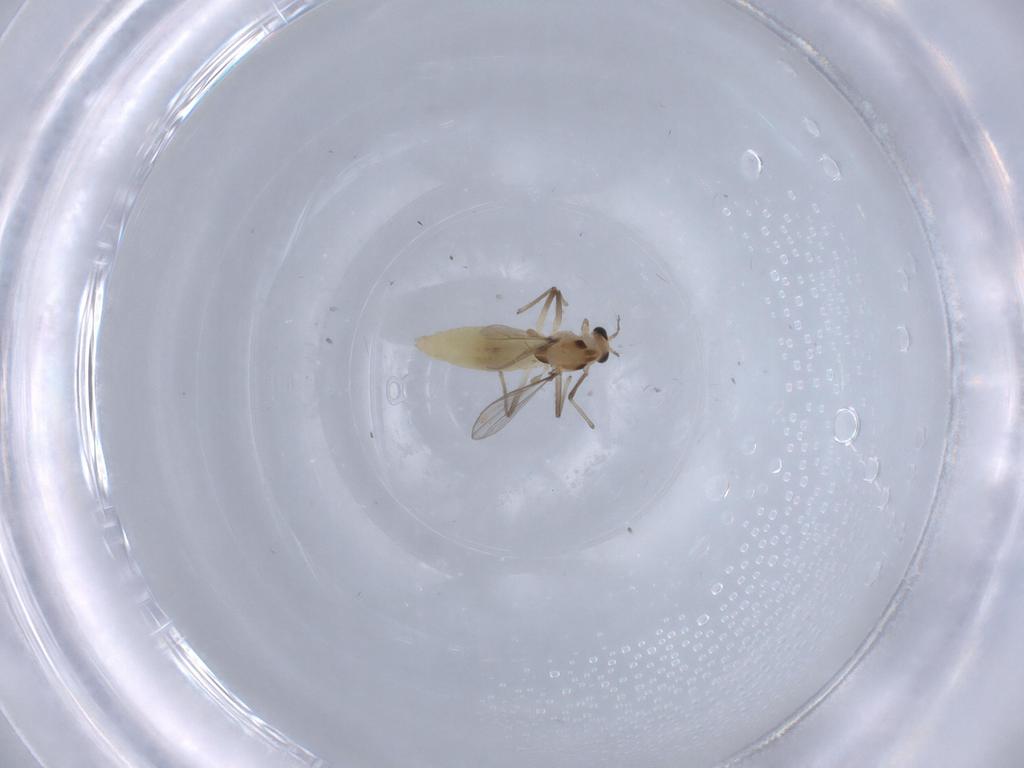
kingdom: Animalia
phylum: Arthropoda
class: Insecta
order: Diptera
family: Chironomidae
